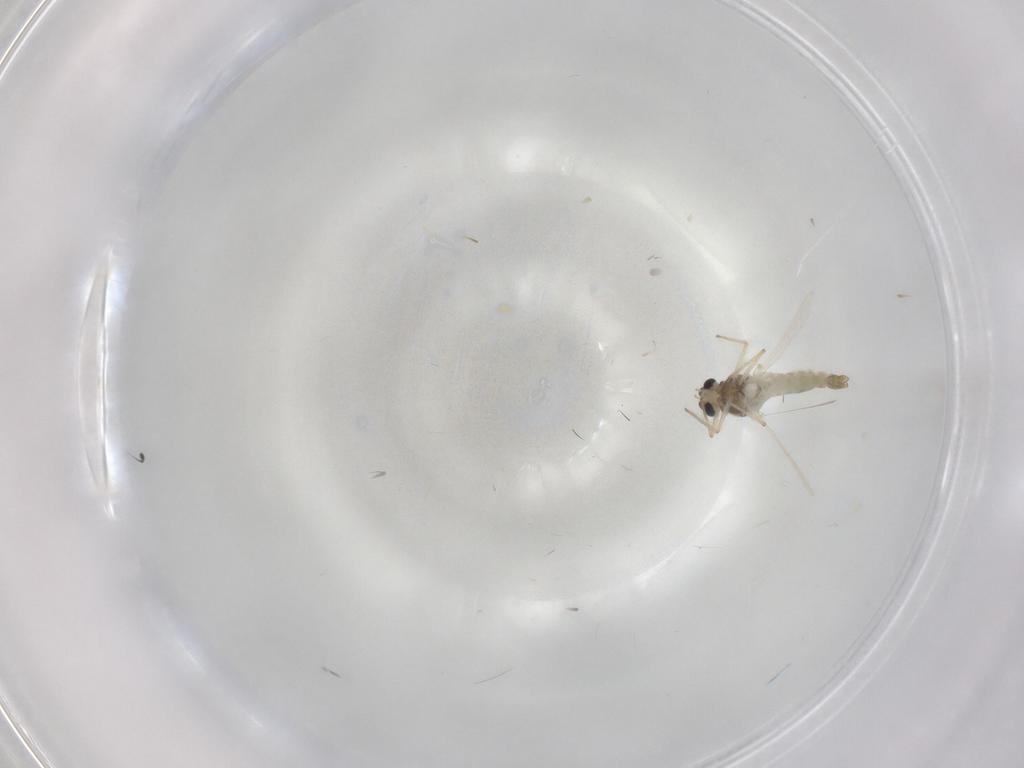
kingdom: Animalia
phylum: Arthropoda
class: Insecta
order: Diptera
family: Chironomidae
